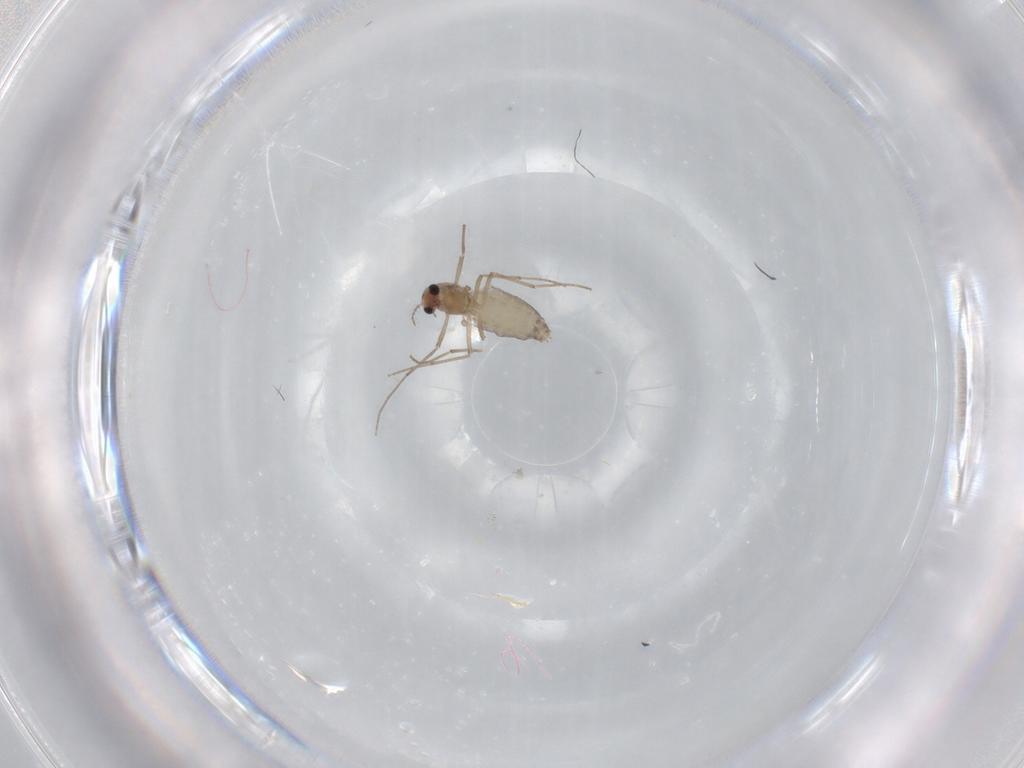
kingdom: Animalia
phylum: Arthropoda
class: Insecta
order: Diptera
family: Chironomidae
